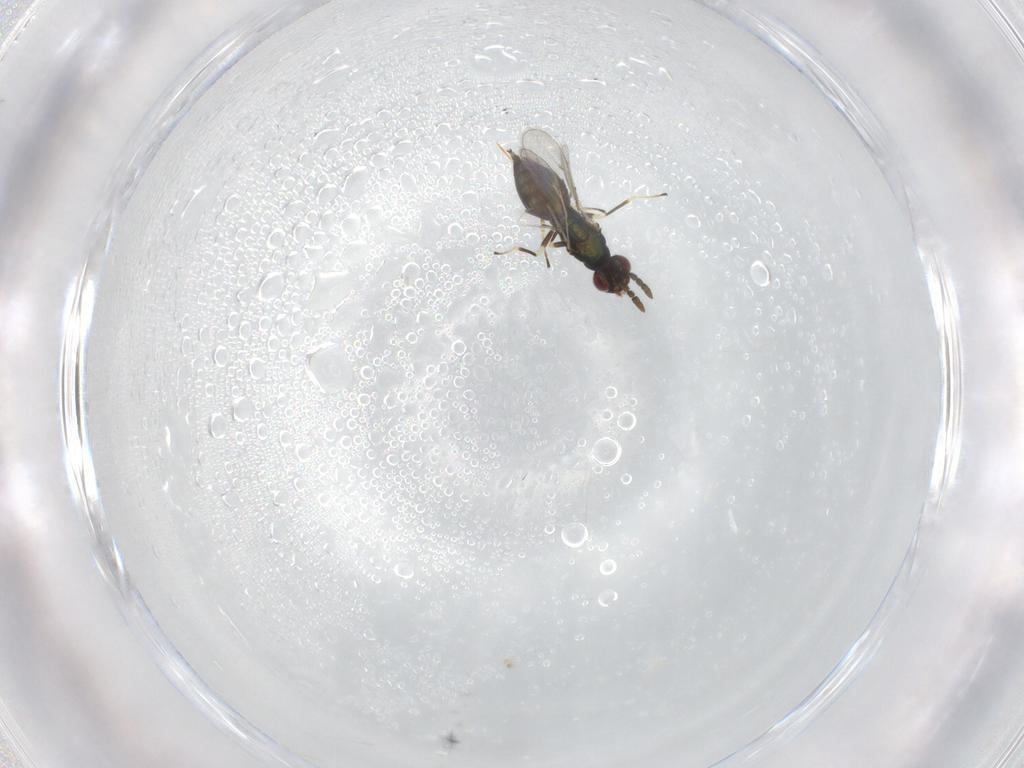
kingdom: Animalia
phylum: Arthropoda
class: Insecta
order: Hymenoptera
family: Eulophidae
